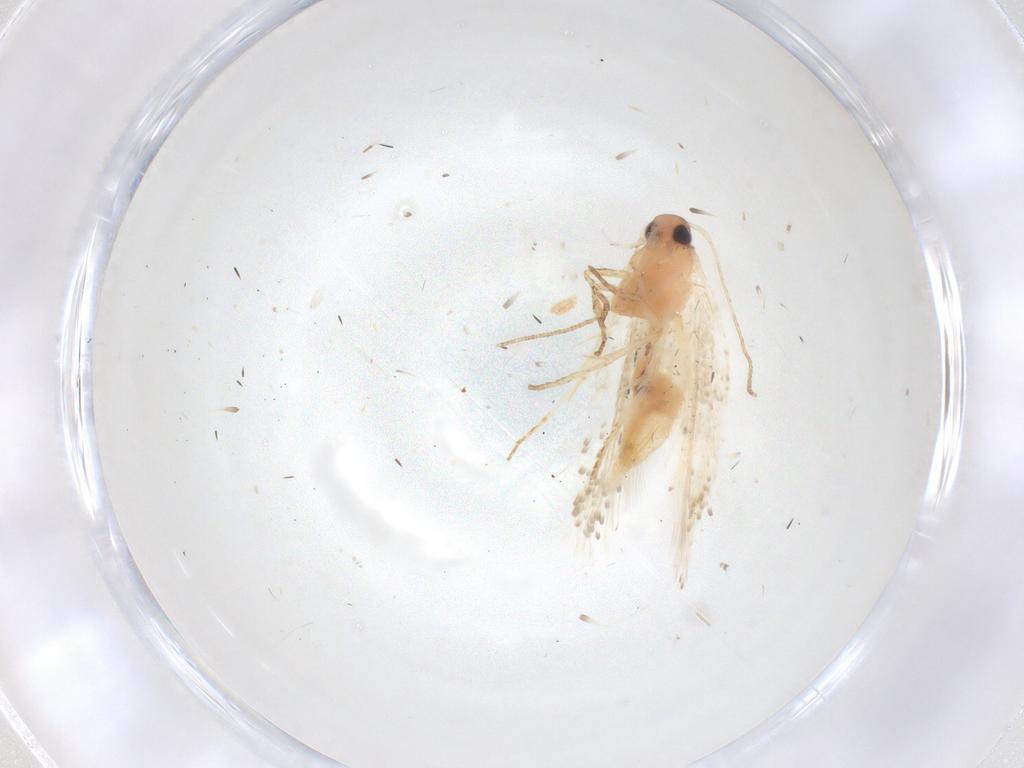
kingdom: Animalia
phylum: Arthropoda
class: Insecta
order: Lepidoptera
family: Gelechiidae
